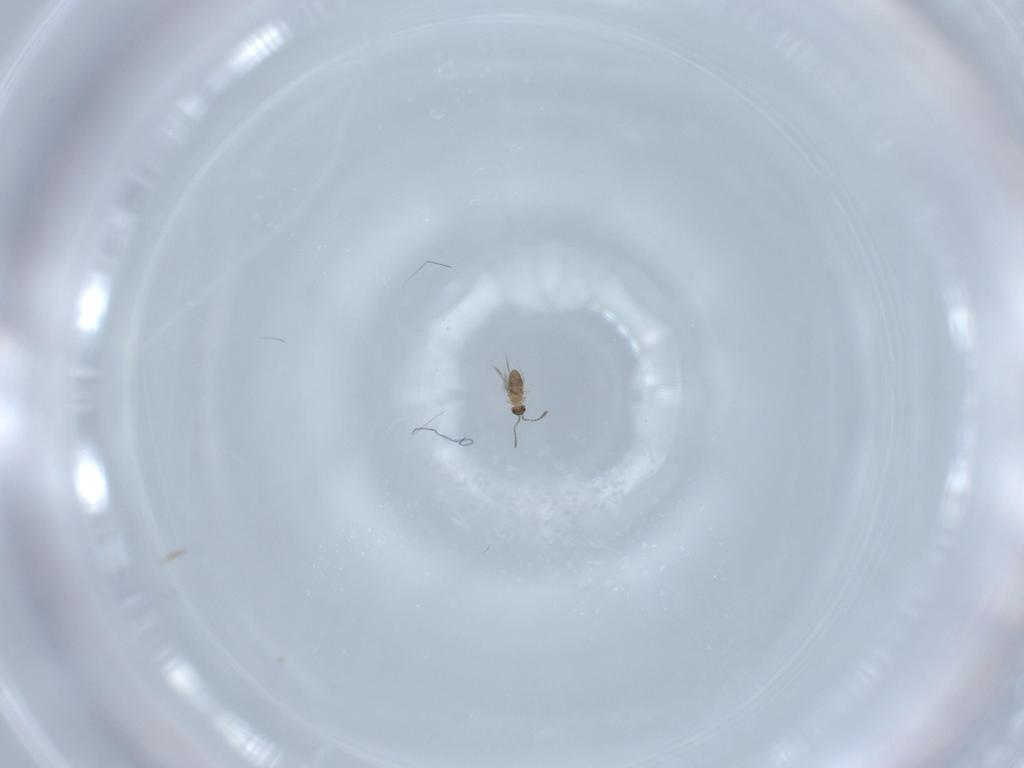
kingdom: Animalia
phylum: Arthropoda
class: Insecta
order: Hymenoptera
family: Mymaridae
